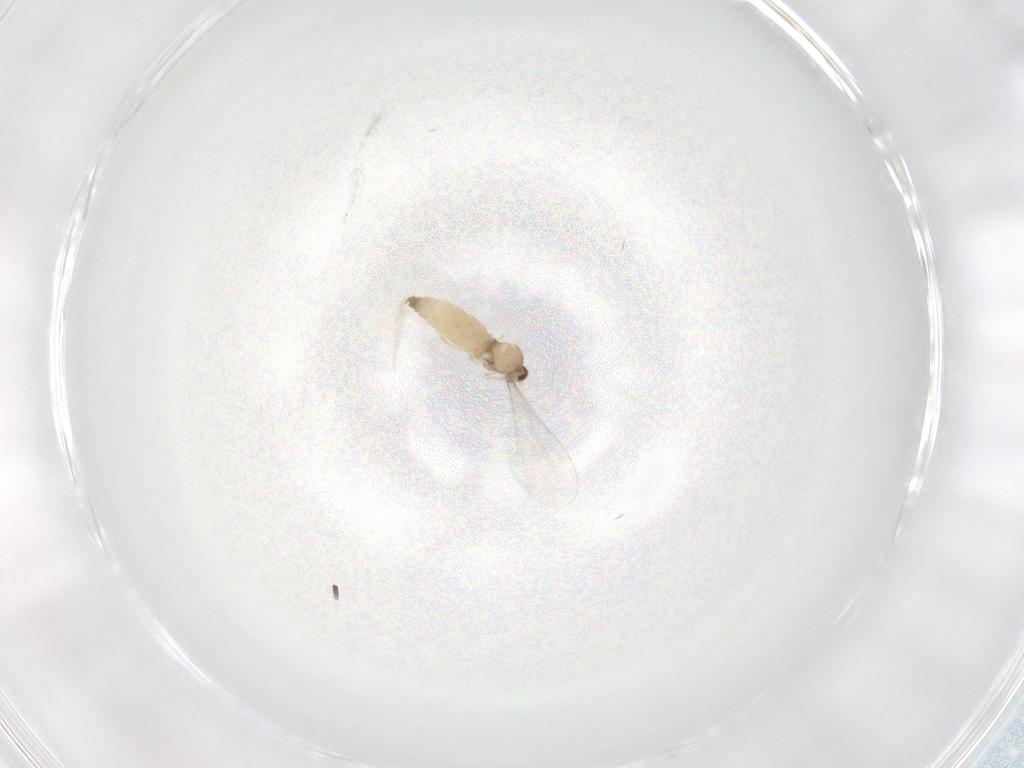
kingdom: Animalia
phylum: Arthropoda
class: Insecta
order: Diptera
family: Cecidomyiidae
